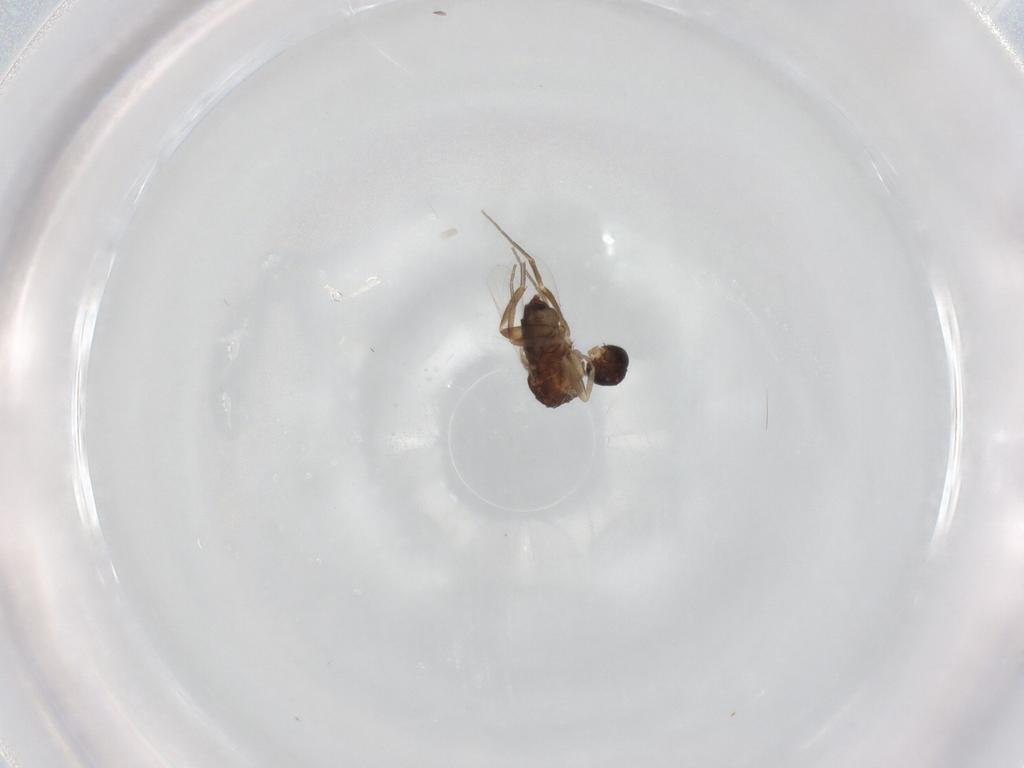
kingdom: Animalia
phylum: Arthropoda
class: Insecta
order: Diptera
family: Phoridae
